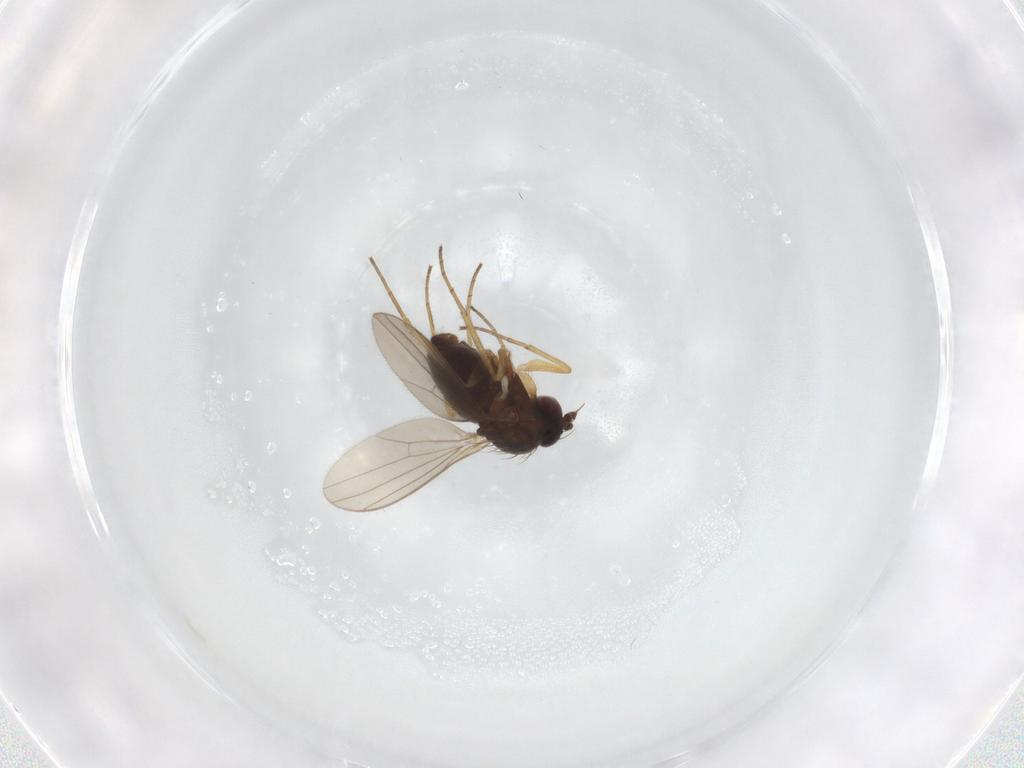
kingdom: Animalia
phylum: Arthropoda
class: Insecta
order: Diptera
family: Dolichopodidae
